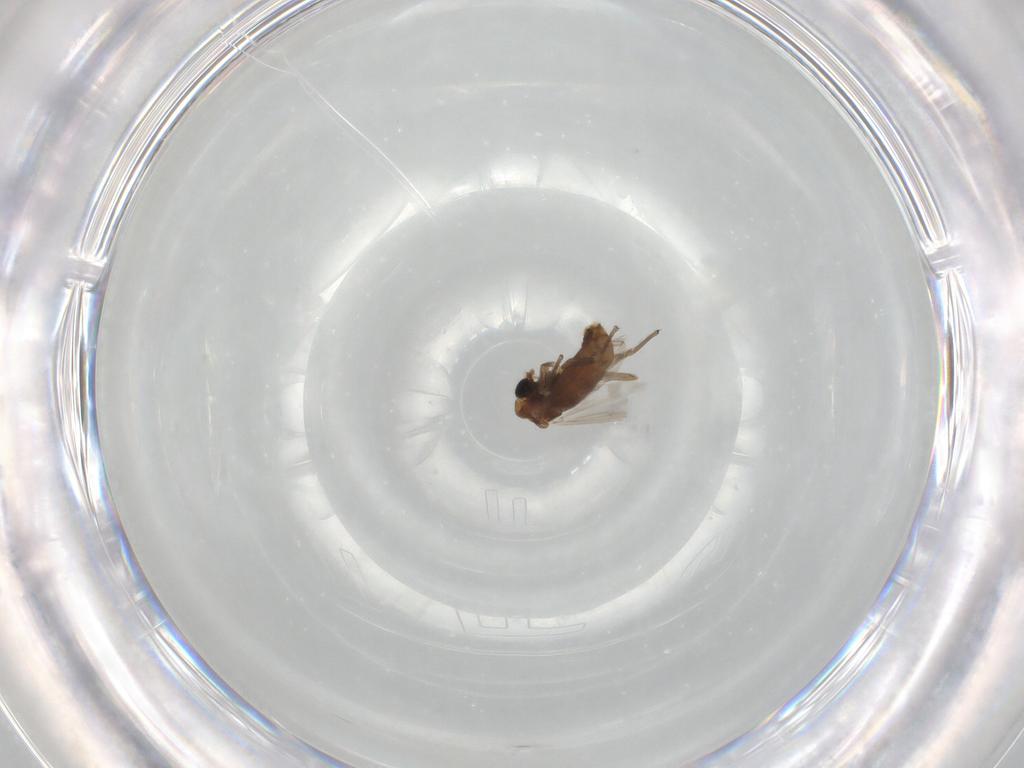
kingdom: Animalia
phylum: Arthropoda
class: Insecta
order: Diptera
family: Chironomidae
